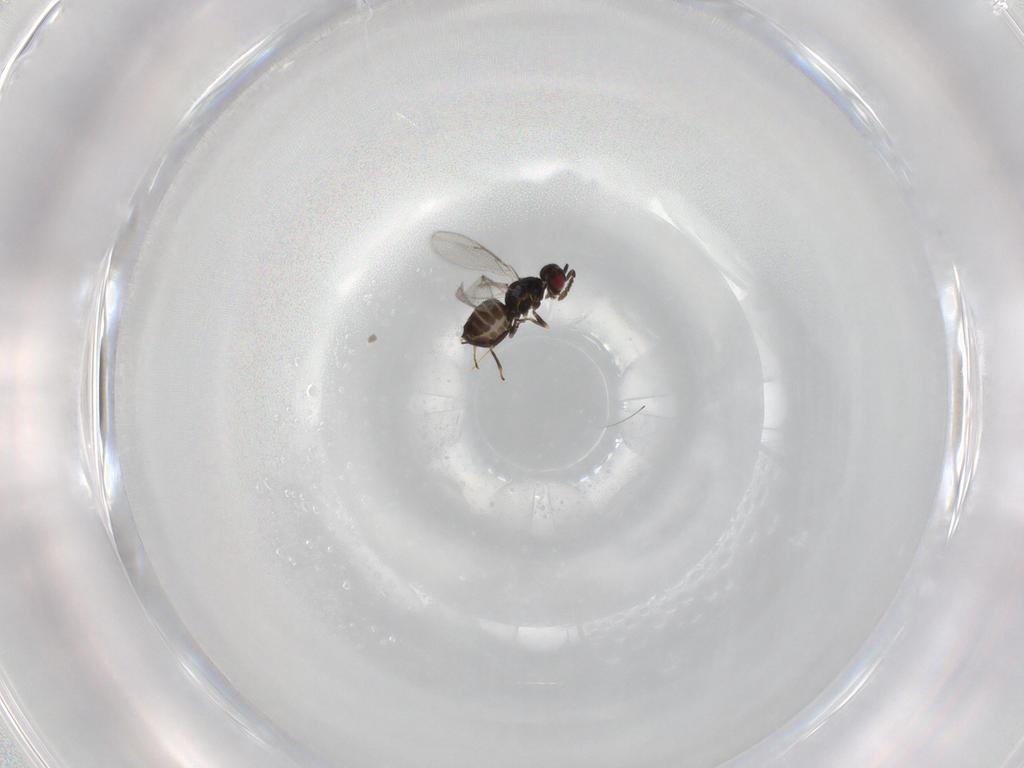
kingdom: Animalia
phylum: Arthropoda
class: Insecta
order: Hymenoptera
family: Eulophidae
